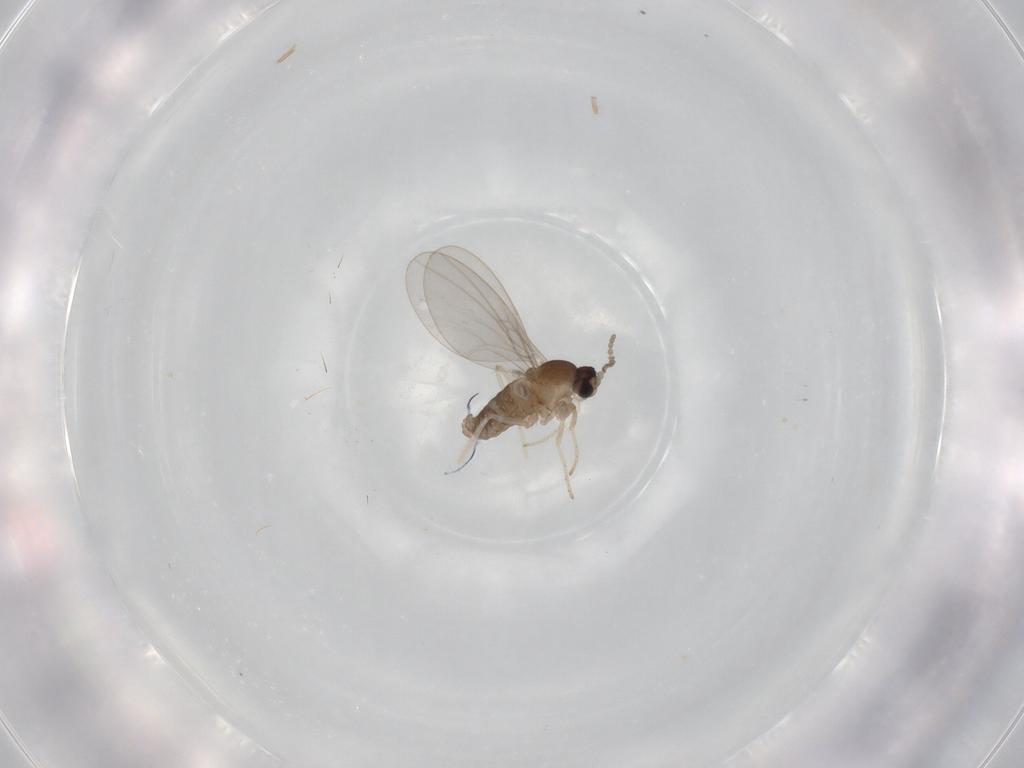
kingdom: Animalia
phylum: Arthropoda
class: Insecta
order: Diptera
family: Cecidomyiidae
